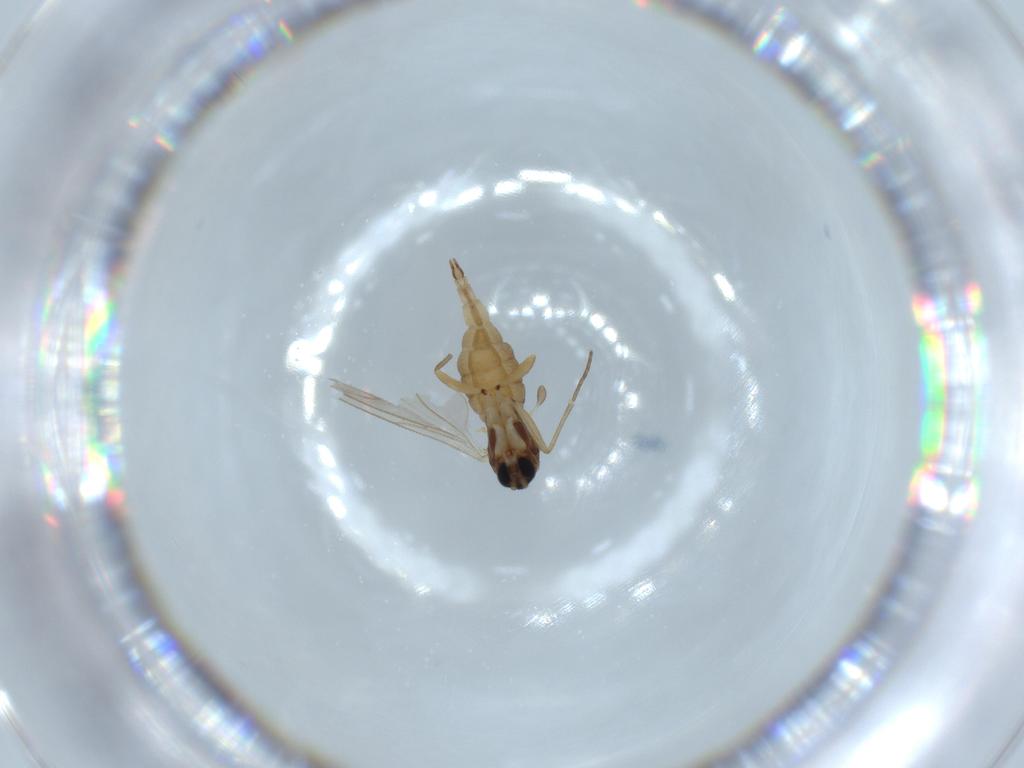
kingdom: Animalia
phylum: Arthropoda
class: Insecta
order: Diptera
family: Sciaridae
